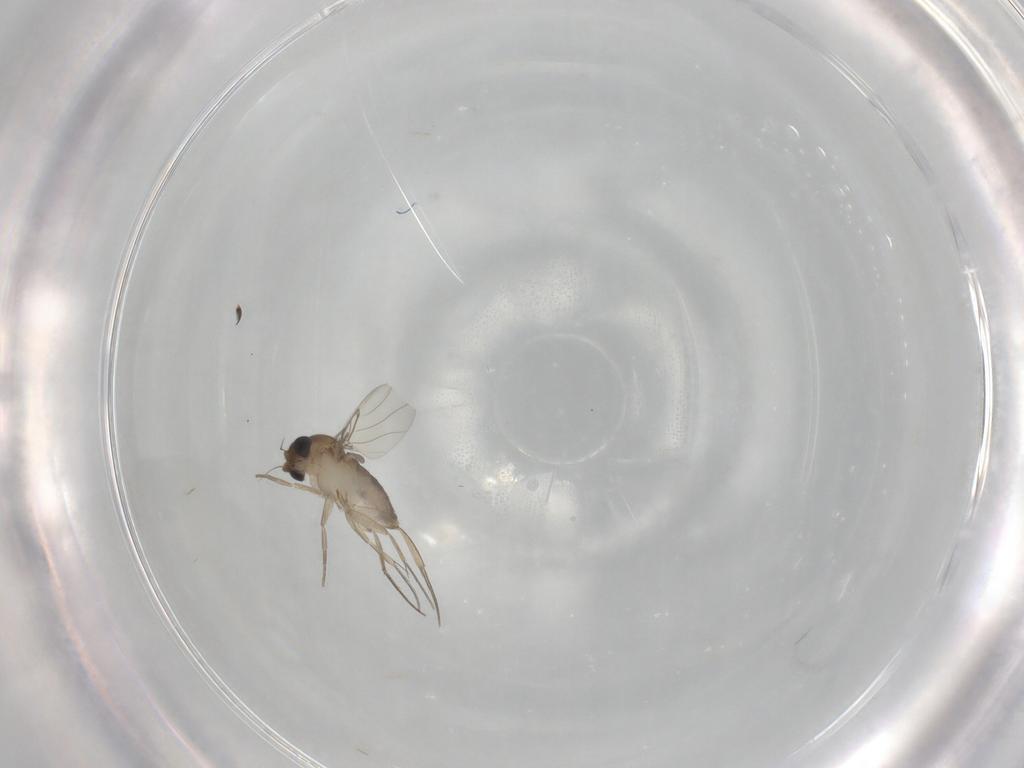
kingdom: Animalia
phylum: Arthropoda
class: Insecta
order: Diptera
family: Phoridae
